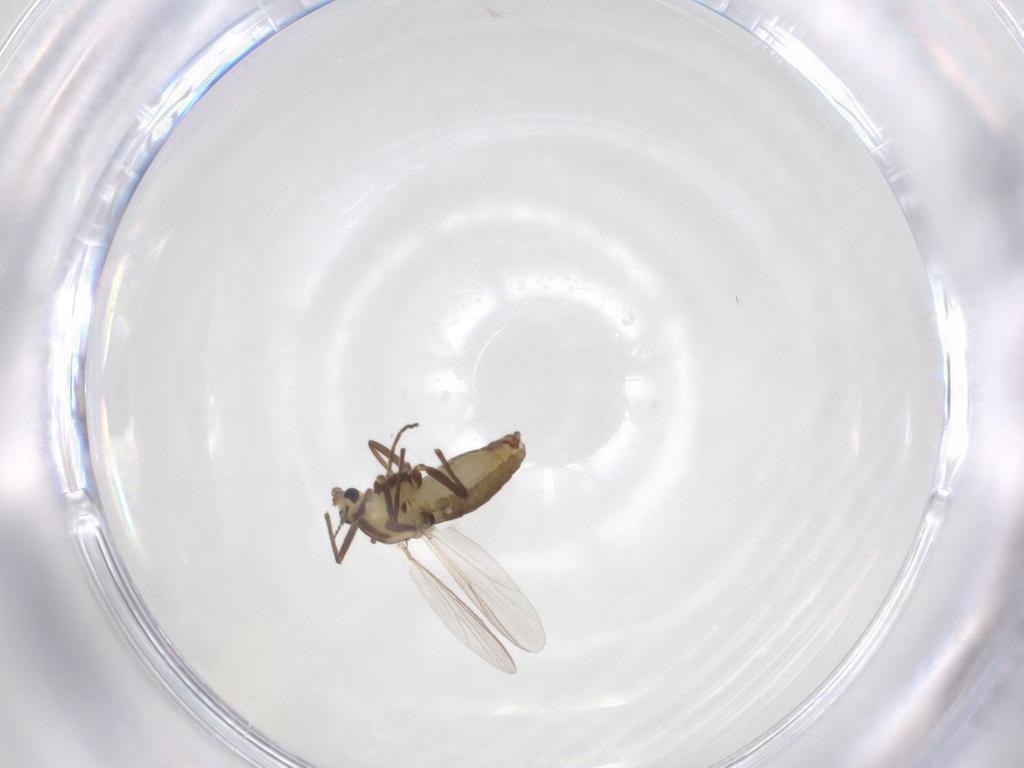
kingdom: Animalia
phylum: Arthropoda
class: Insecta
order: Diptera
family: Chironomidae
